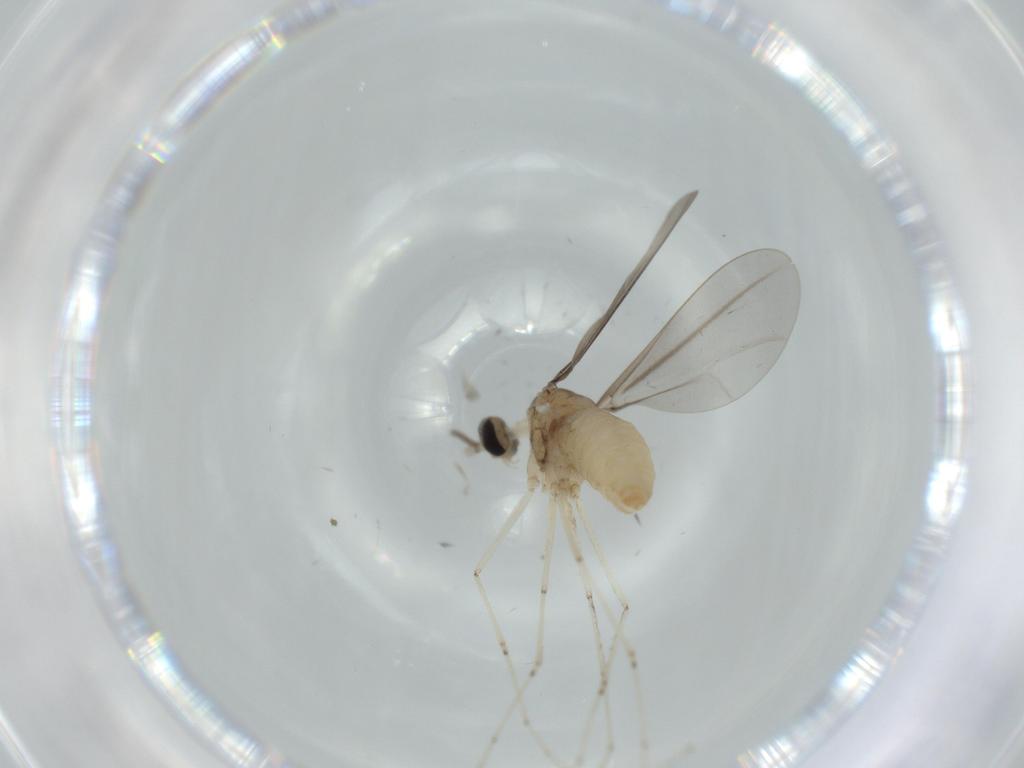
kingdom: Animalia
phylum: Arthropoda
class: Insecta
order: Diptera
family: Cecidomyiidae
